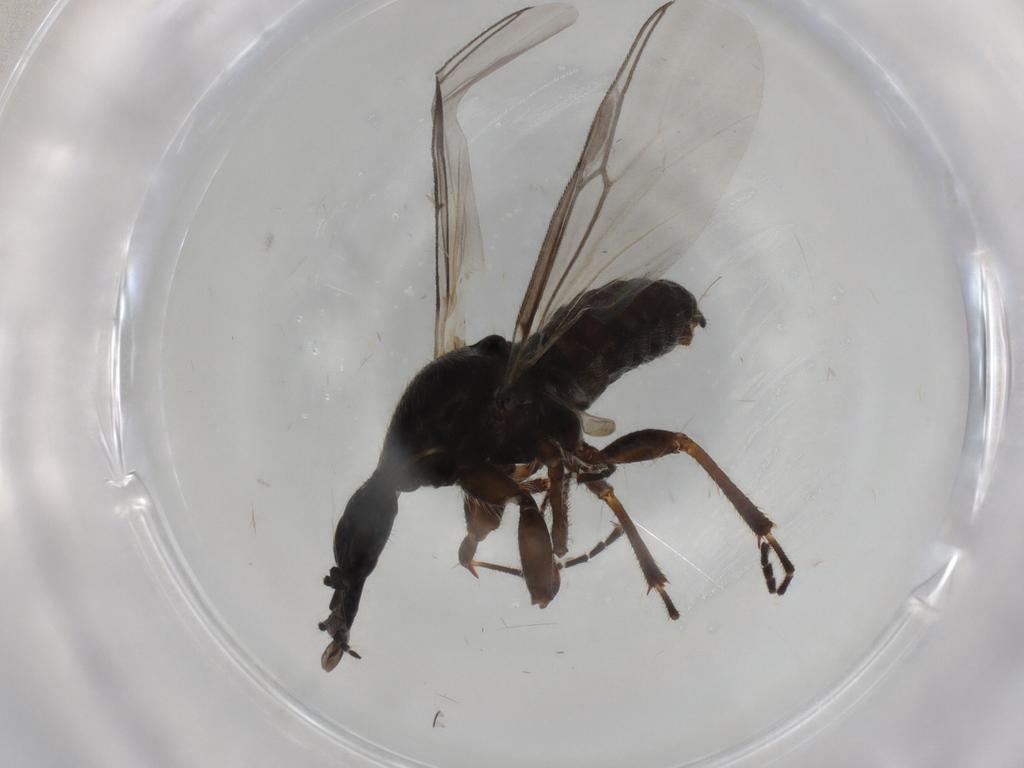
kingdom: Animalia
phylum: Arthropoda
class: Insecta
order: Diptera
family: Bibionidae
